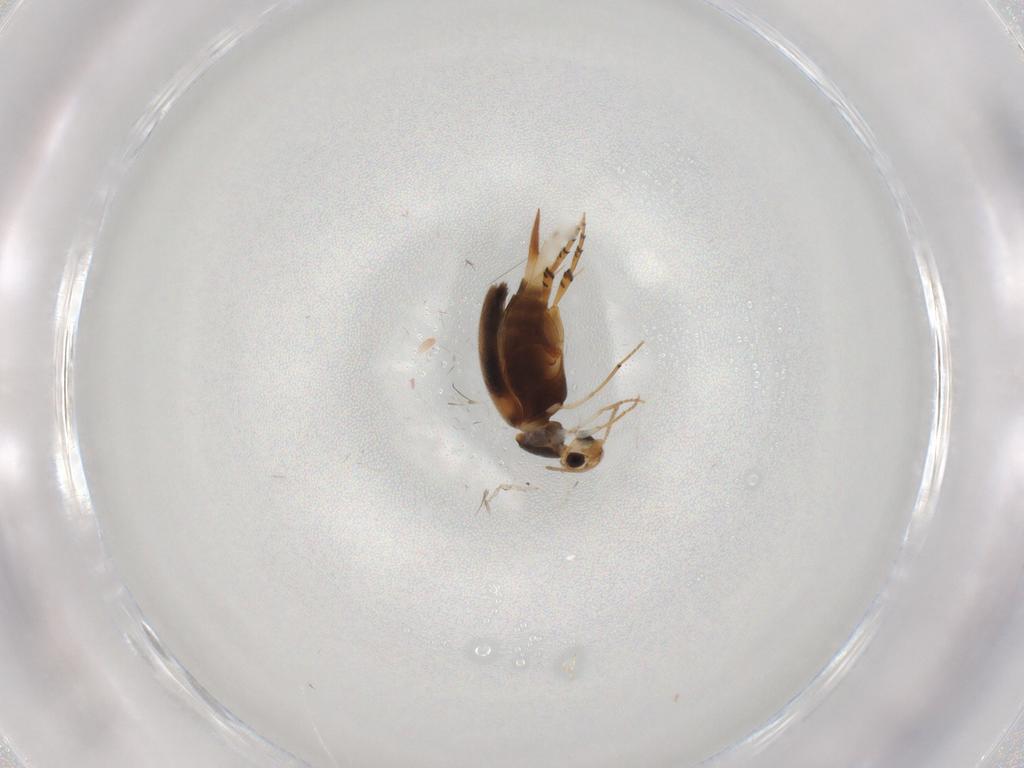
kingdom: Animalia
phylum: Arthropoda
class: Insecta
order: Coleoptera
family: Mordellidae
